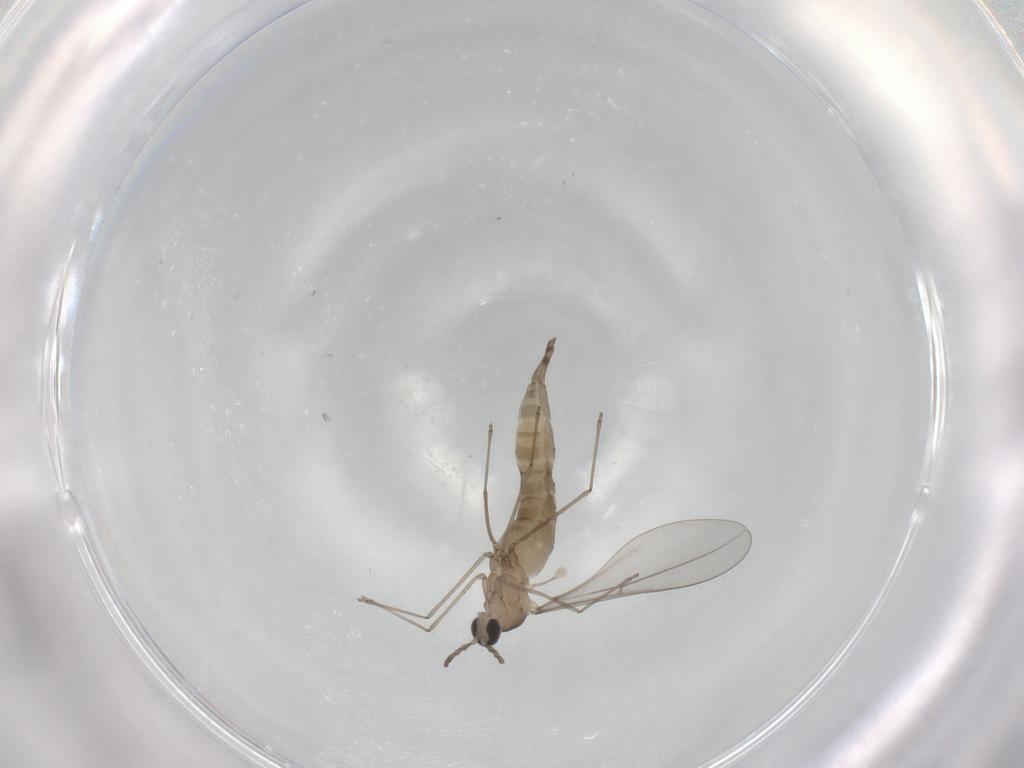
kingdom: Animalia
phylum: Arthropoda
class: Insecta
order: Diptera
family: Cecidomyiidae
